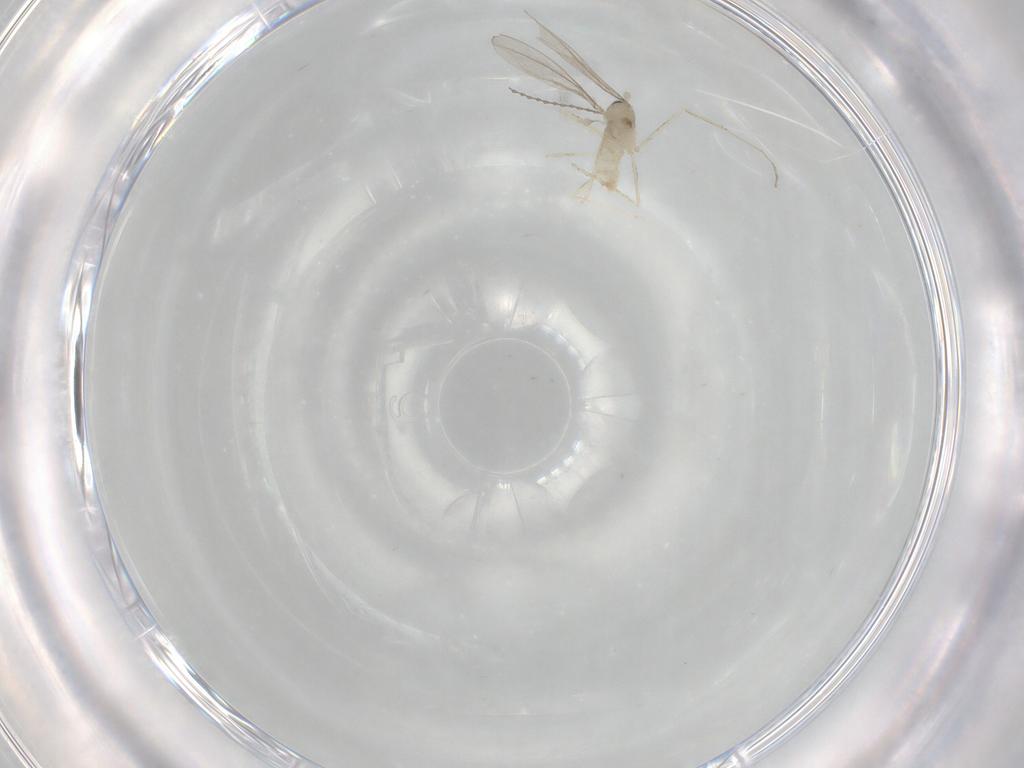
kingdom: Animalia
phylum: Arthropoda
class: Insecta
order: Diptera
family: Cecidomyiidae
